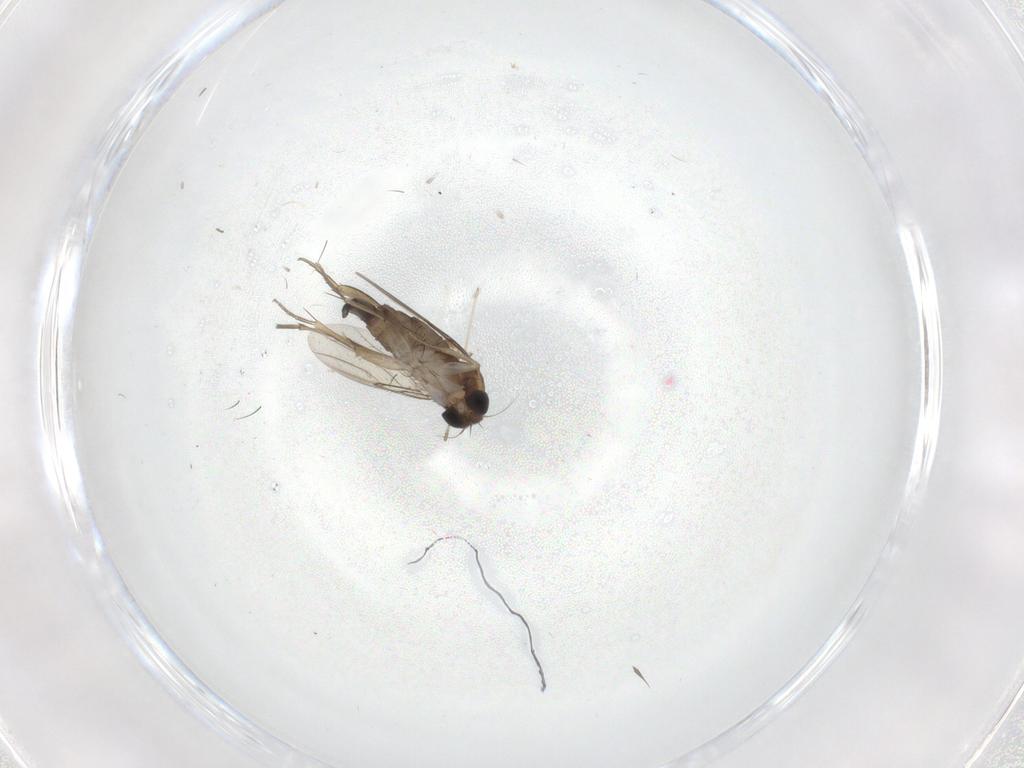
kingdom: Animalia
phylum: Arthropoda
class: Insecta
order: Diptera
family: Phoridae
